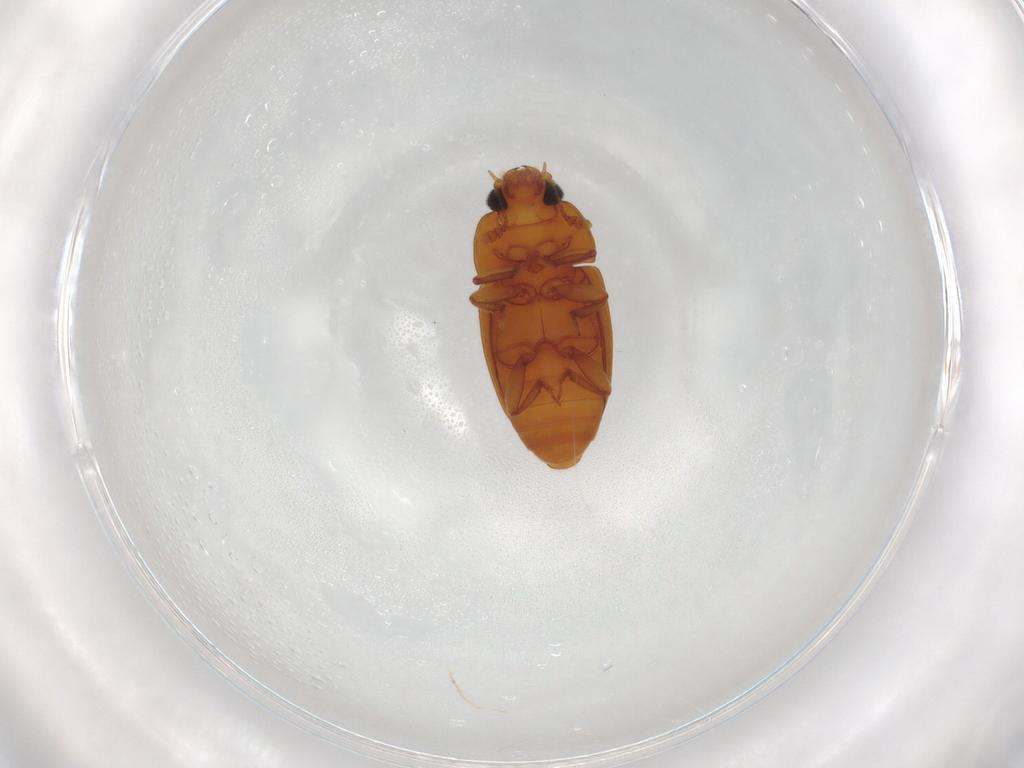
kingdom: Animalia
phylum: Arthropoda
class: Insecta
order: Coleoptera
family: Nitidulidae
